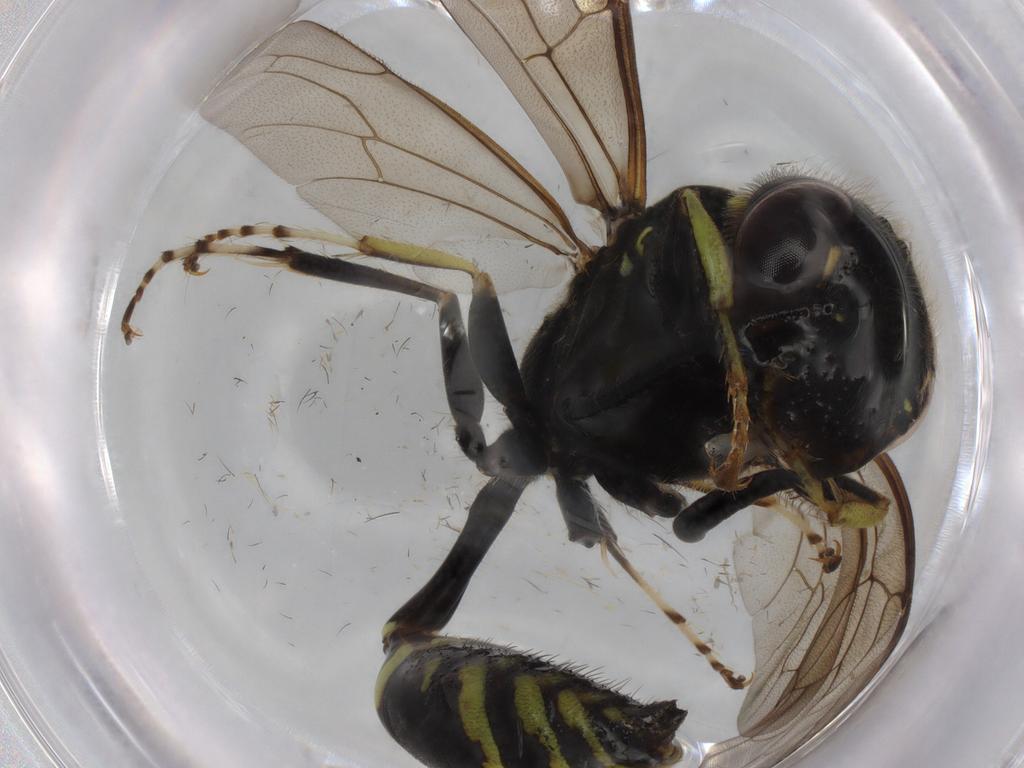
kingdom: Animalia
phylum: Arthropoda
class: Insecta
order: Hymenoptera
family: Crabronidae
